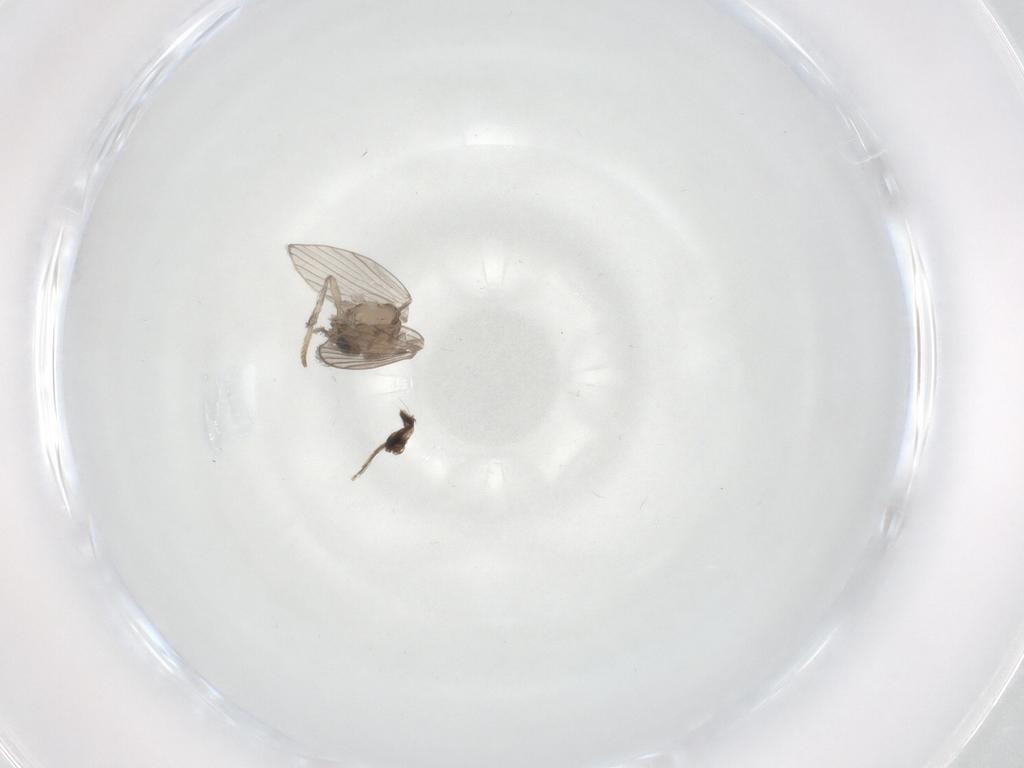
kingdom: Animalia
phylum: Arthropoda
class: Insecta
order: Diptera
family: Psychodidae
